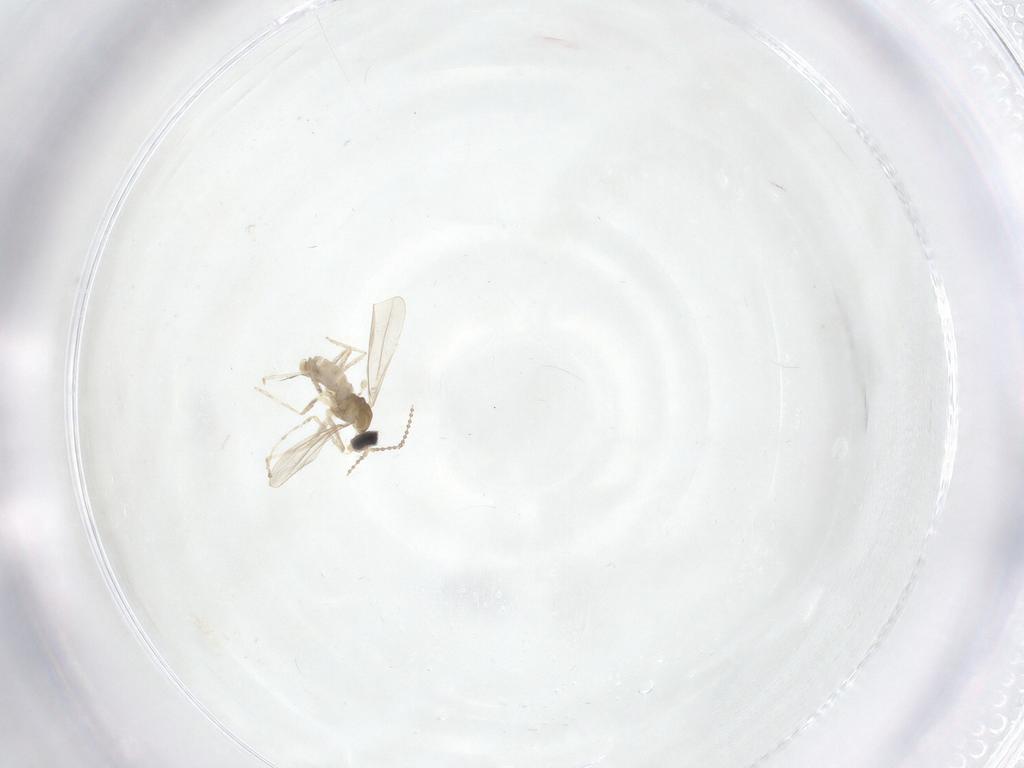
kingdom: Animalia
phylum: Arthropoda
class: Insecta
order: Diptera
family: Cecidomyiidae
